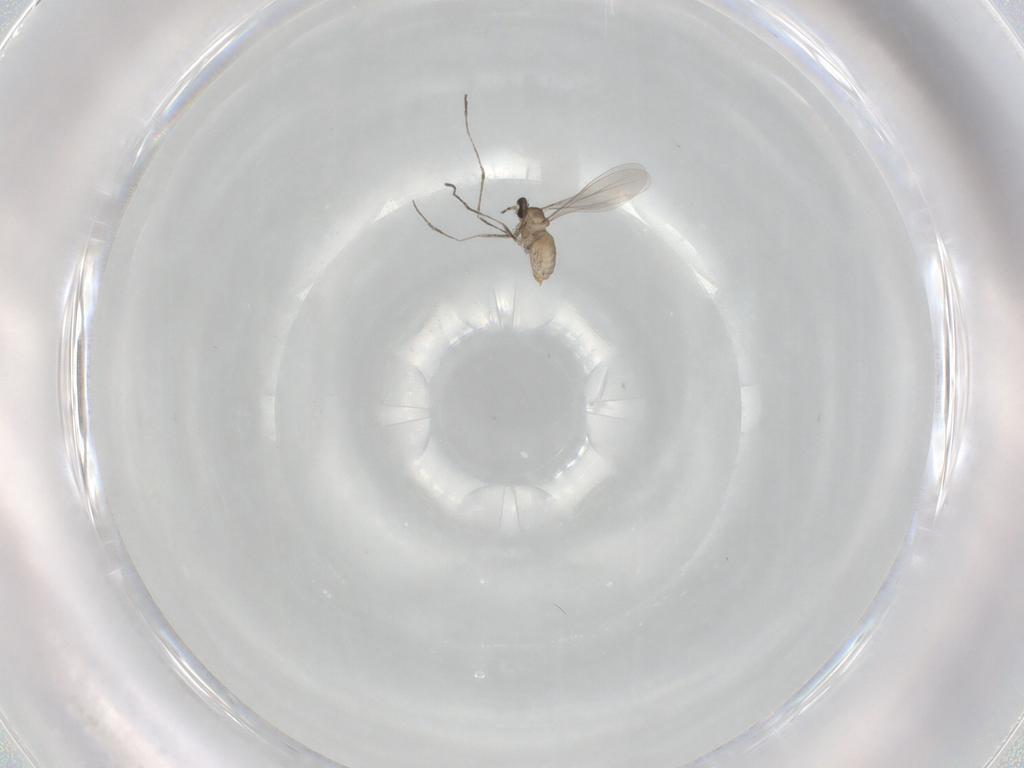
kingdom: Animalia
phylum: Arthropoda
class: Insecta
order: Diptera
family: Cecidomyiidae
